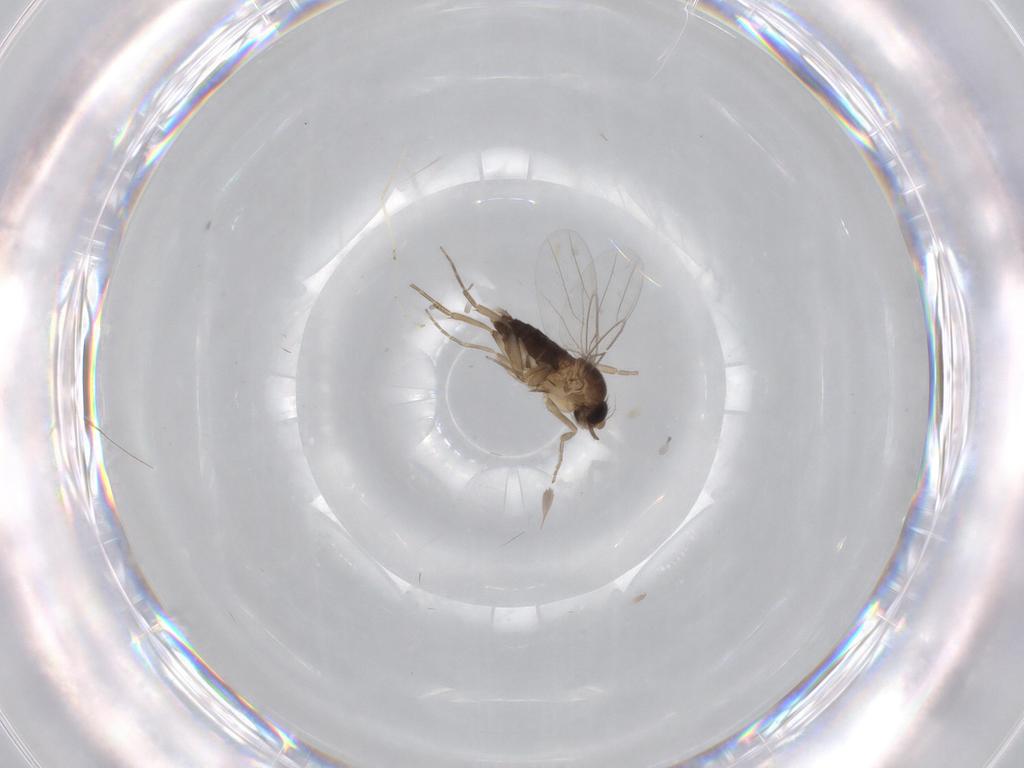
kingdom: Animalia
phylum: Arthropoda
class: Insecta
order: Diptera
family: Cecidomyiidae
